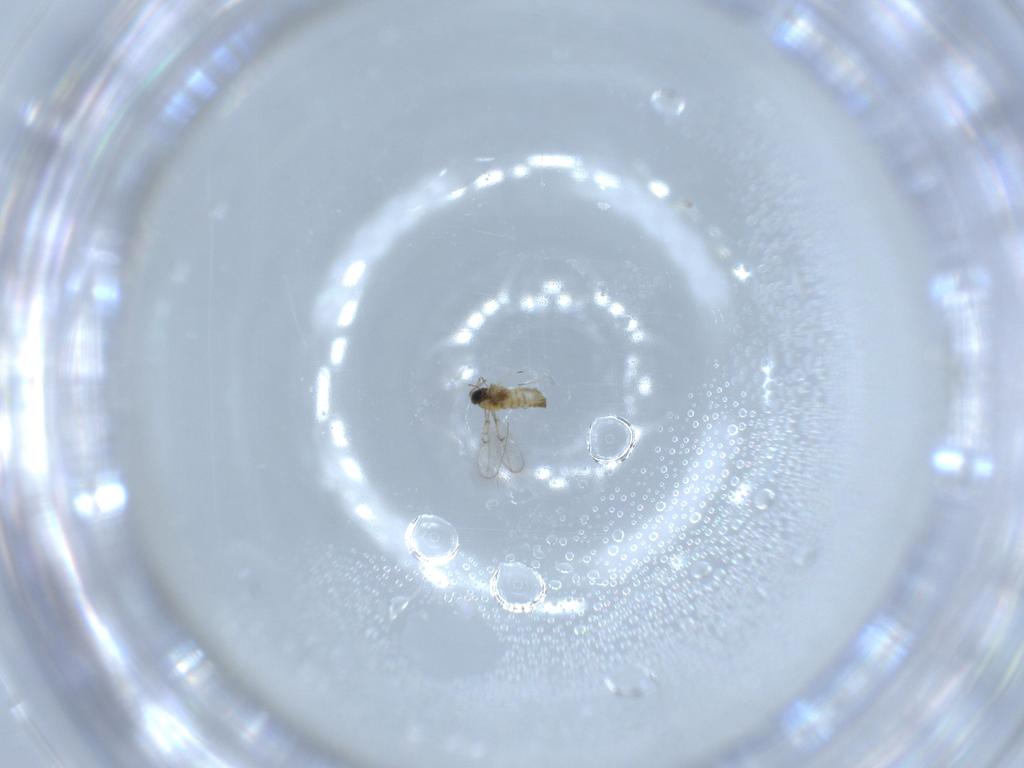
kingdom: Animalia
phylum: Arthropoda
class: Insecta
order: Hymenoptera
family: Trichogrammatidae
